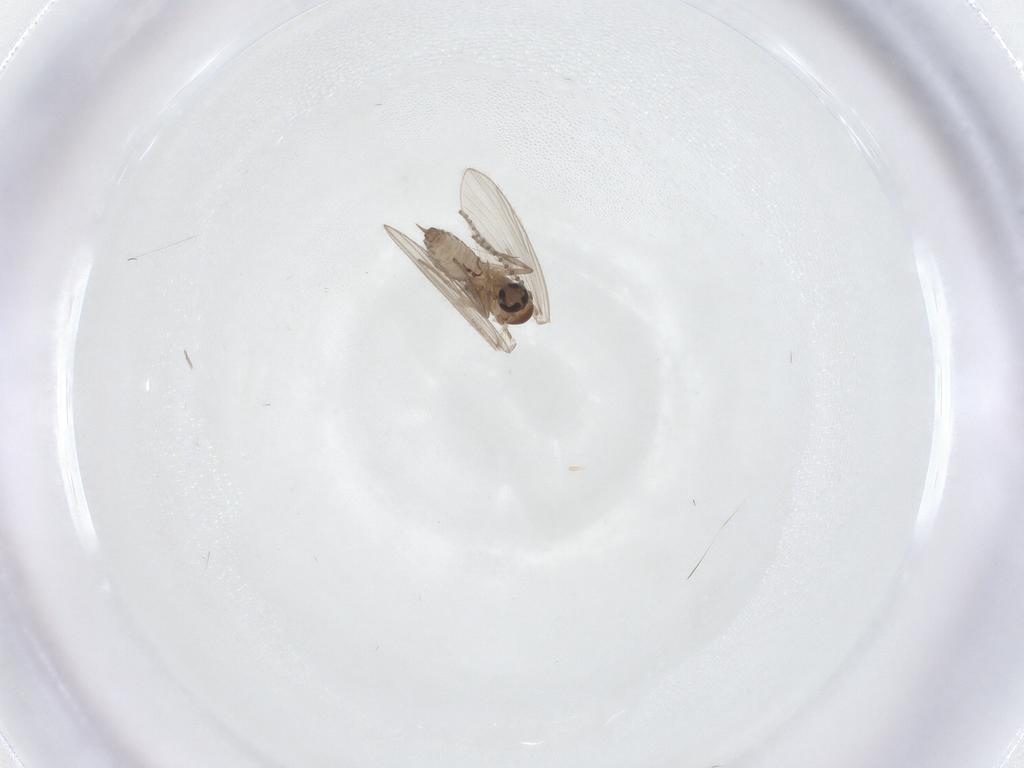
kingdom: Animalia
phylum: Arthropoda
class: Insecta
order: Diptera
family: Psychodidae
